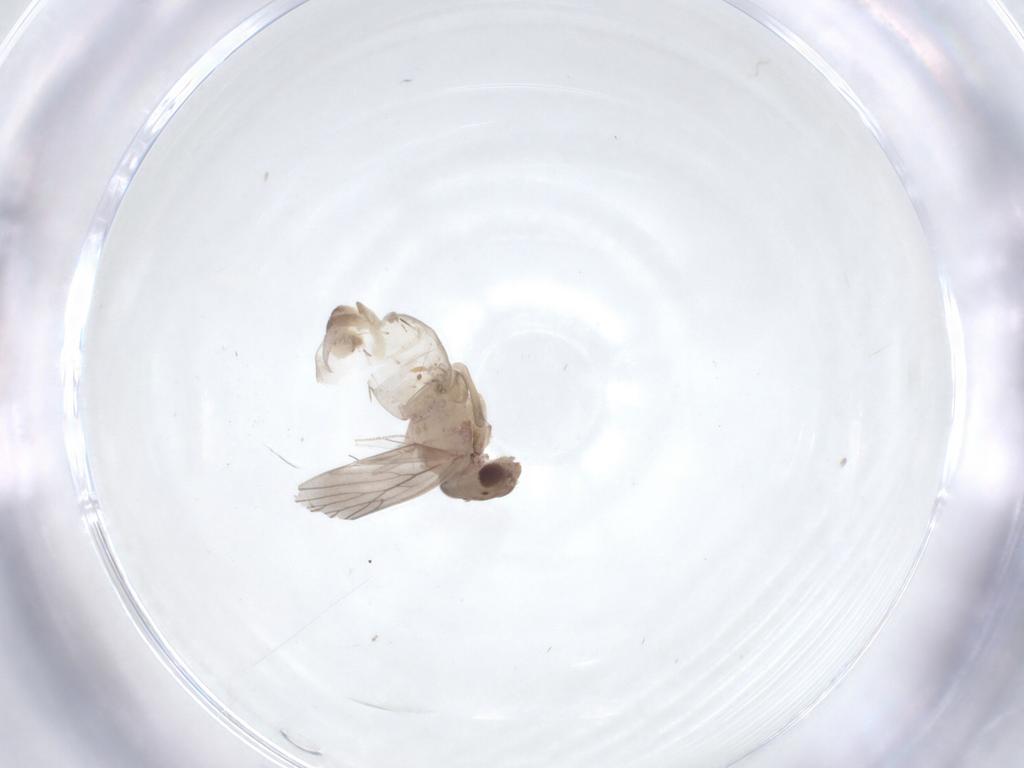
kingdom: Animalia
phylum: Arthropoda
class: Insecta
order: Psocodea
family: Lepidopsocidae
